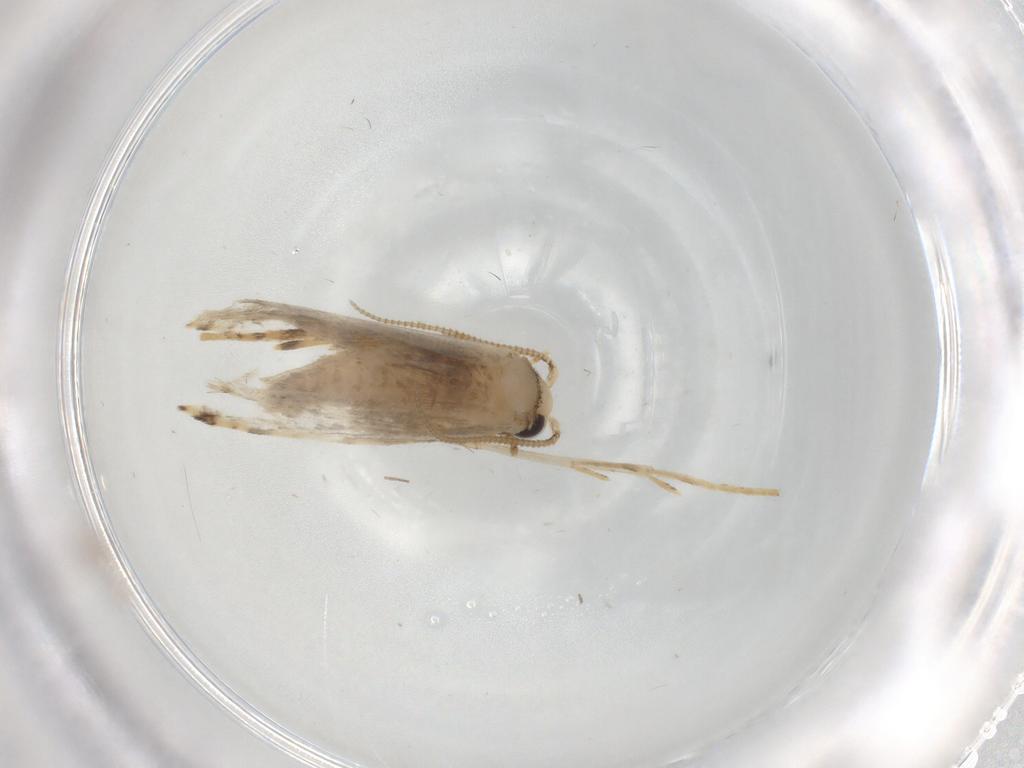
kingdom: Animalia
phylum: Arthropoda
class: Insecta
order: Lepidoptera
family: Tineidae
